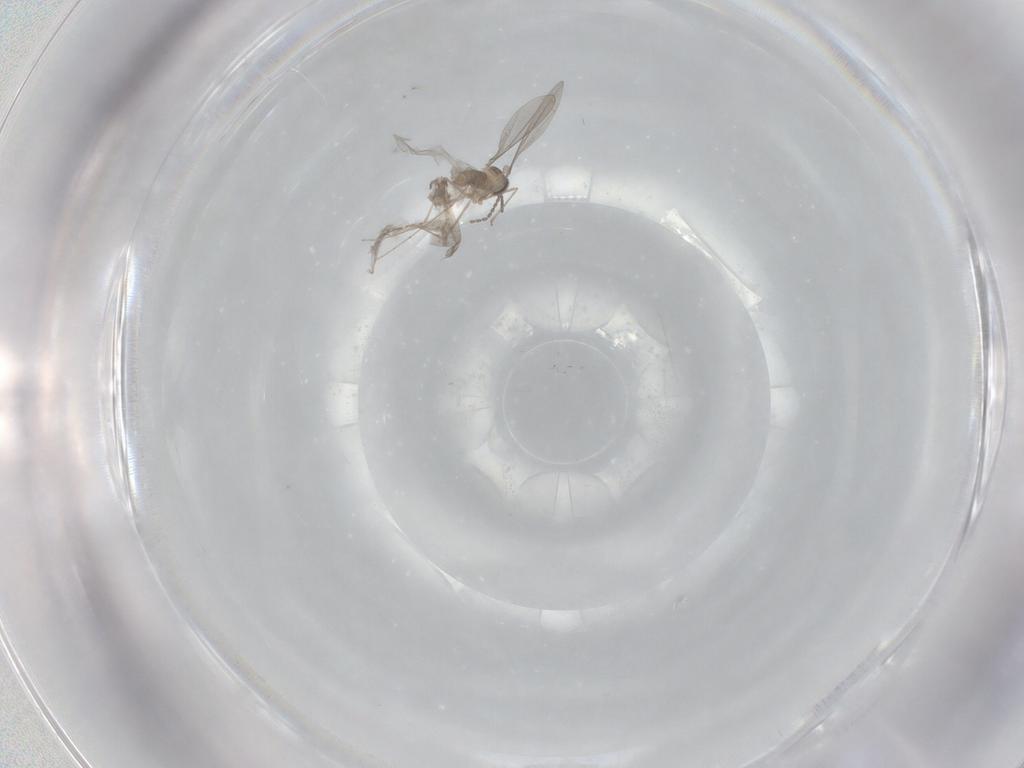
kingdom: Animalia
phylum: Arthropoda
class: Insecta
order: Diptera
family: Cecidomyiidae
